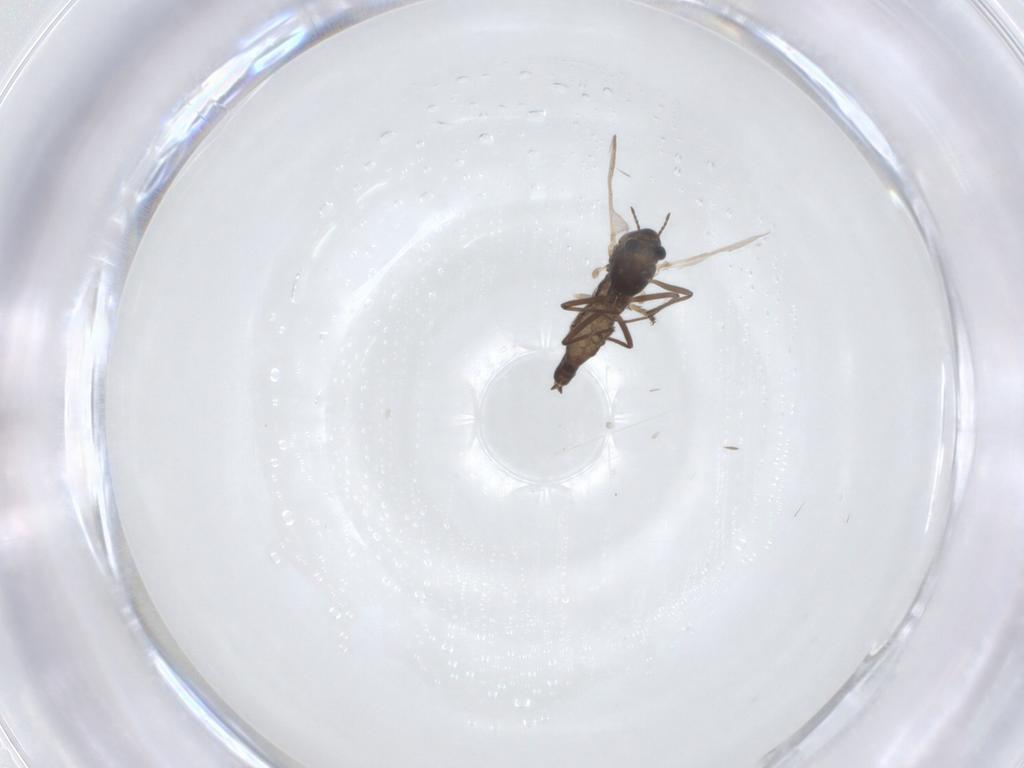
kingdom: Animalia
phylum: Arthropoda
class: Insecta
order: Diptera
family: Chironomidae
